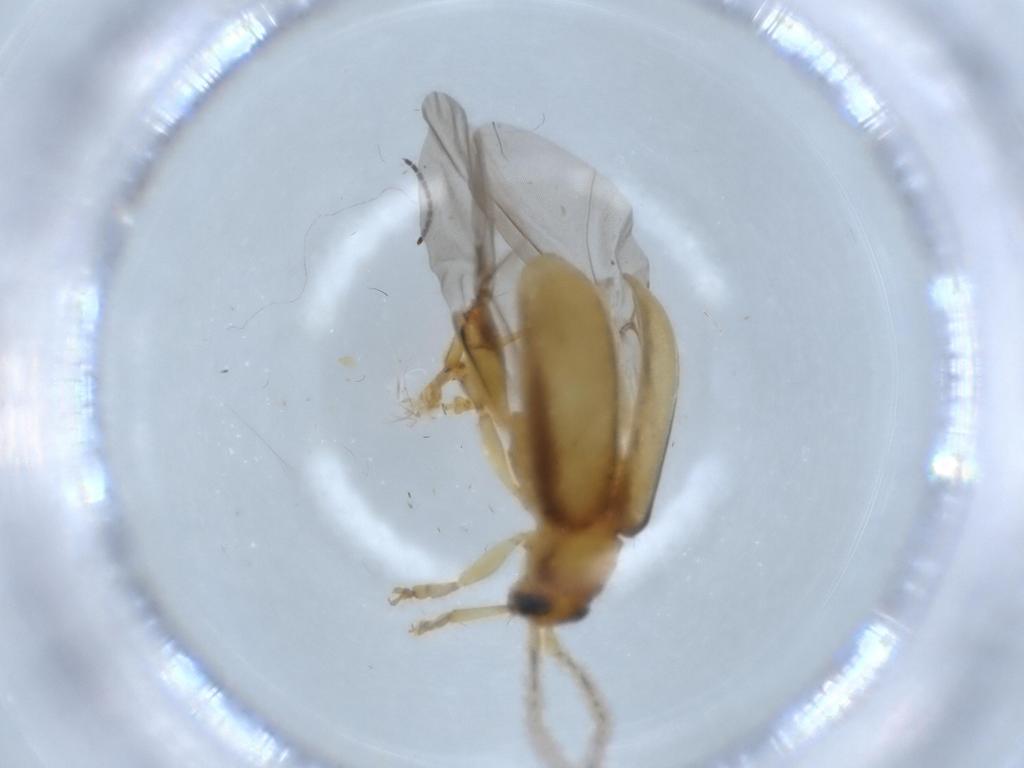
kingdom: Animalia
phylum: Arthropoda
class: Insecta
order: Coleoptera
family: Chrysomelidae
